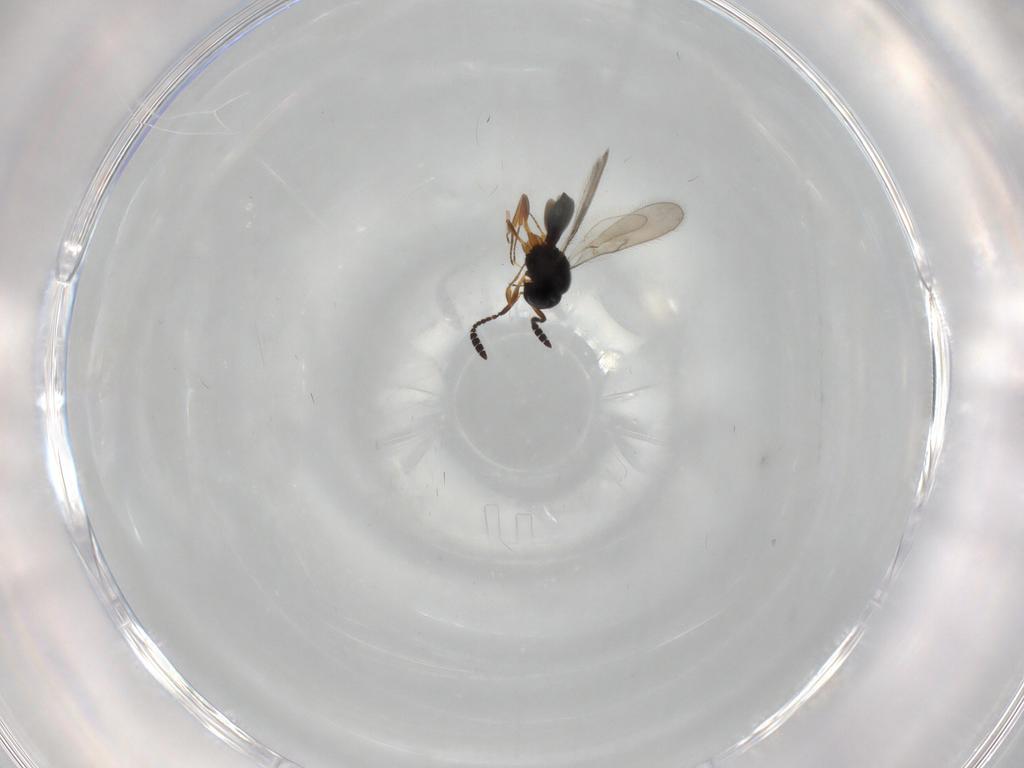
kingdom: Animalia
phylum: Arthropoda
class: Insecta
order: Hymenoptera
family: Scelionidae
